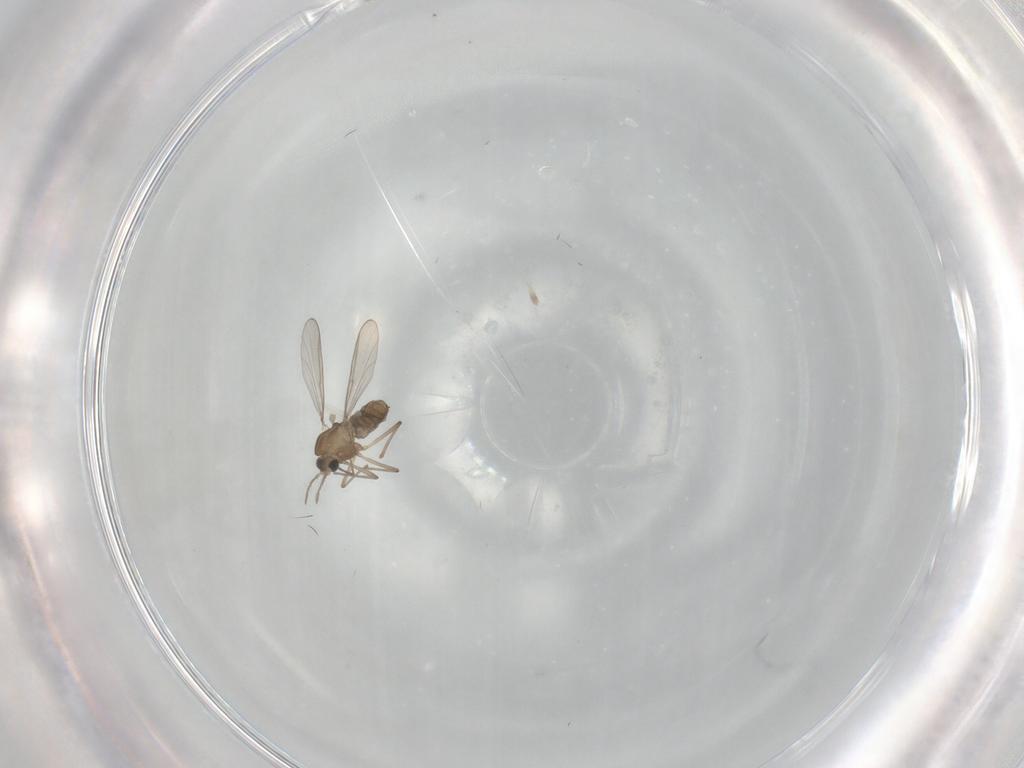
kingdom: Animalia
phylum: Arthropoda
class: Insecta
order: Diptera
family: Chironomidae
